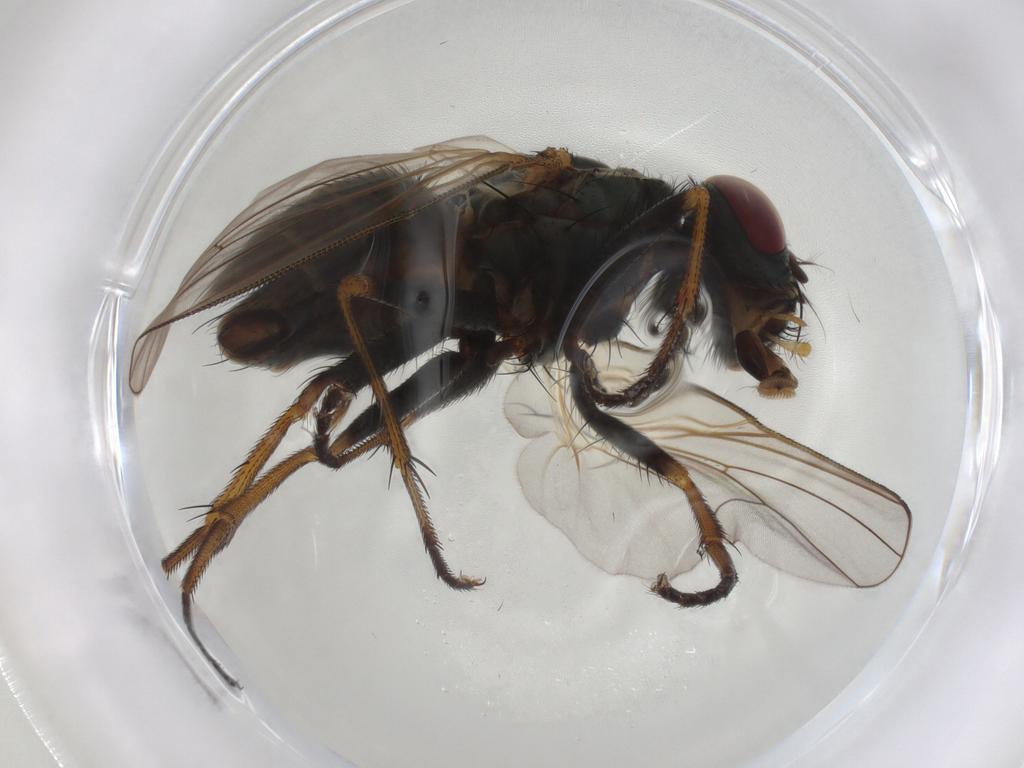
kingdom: Animalia
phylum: Arthropoda
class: Insecta
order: Diptera
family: Muscidae
